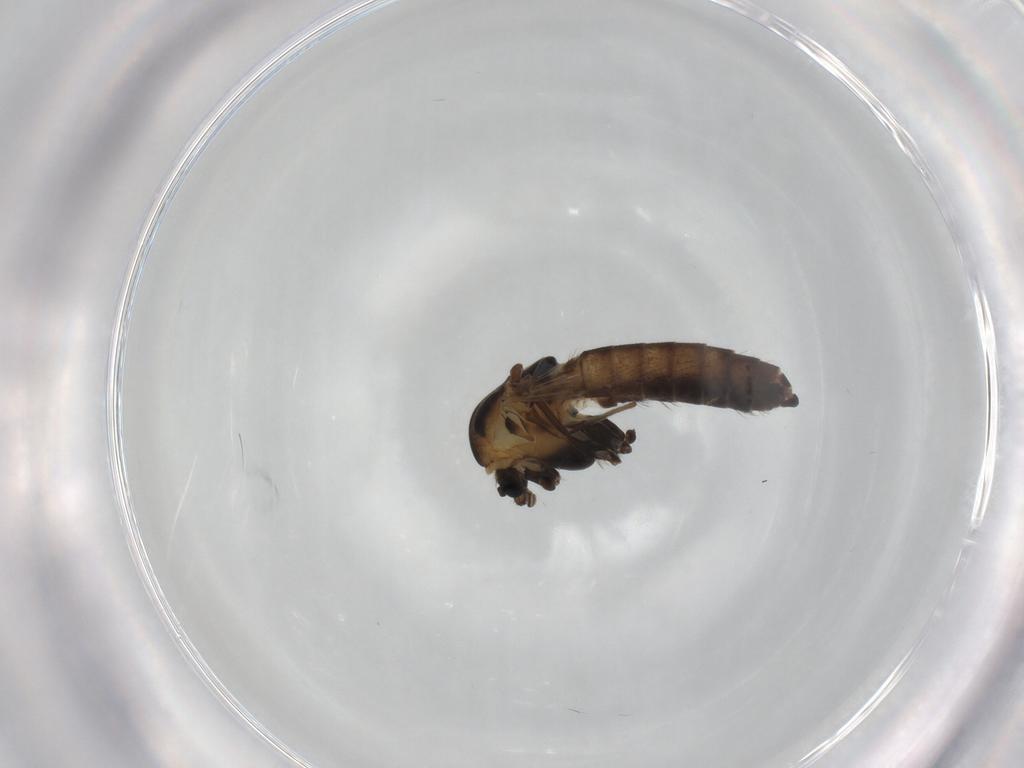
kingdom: Animalia
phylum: Arthropoda
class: Insecta
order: Diptera
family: Chironomidae
